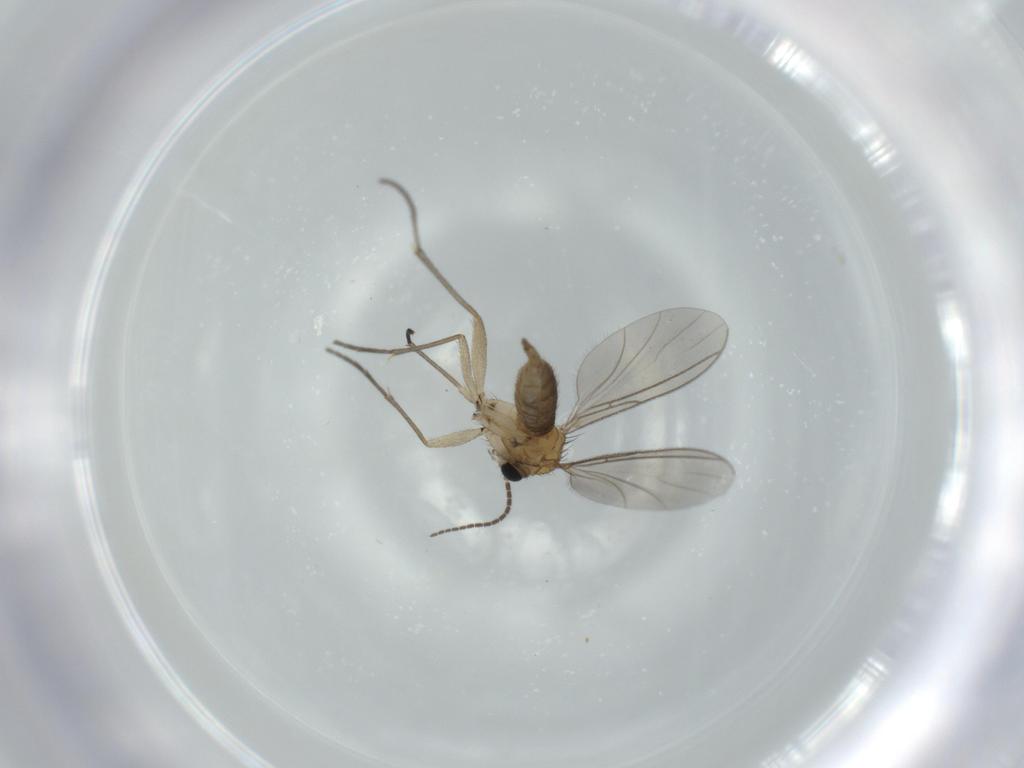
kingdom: Animalia
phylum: Arthropoda
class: Insecta
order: Diptera
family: Sciaridae
